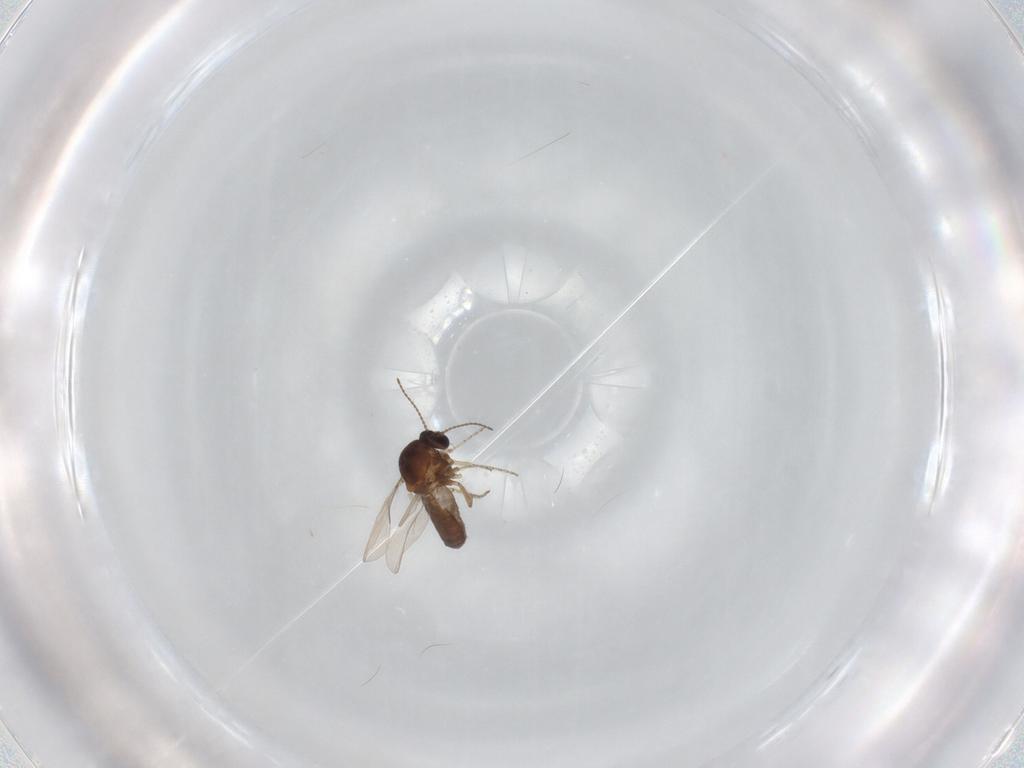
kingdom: Animalia
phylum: Arthropoda
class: Insecta
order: Diptera
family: Ceratopogonidae
